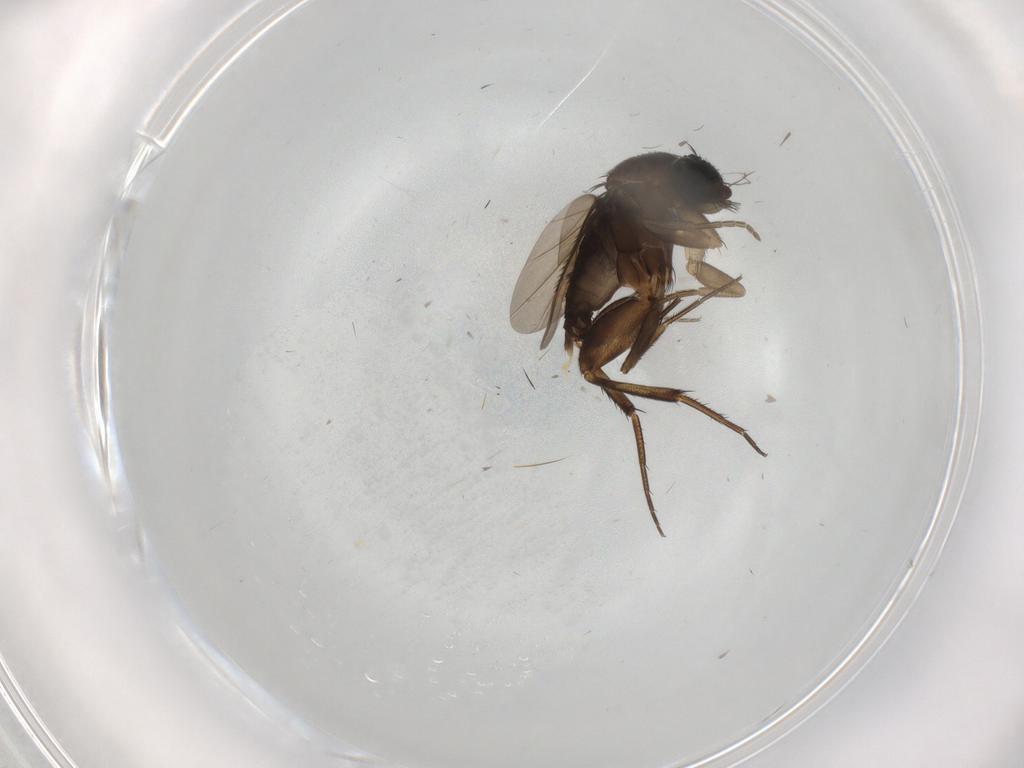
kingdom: Animalia
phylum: Arthropoda
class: Insecta
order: Diptera
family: Phoridae
